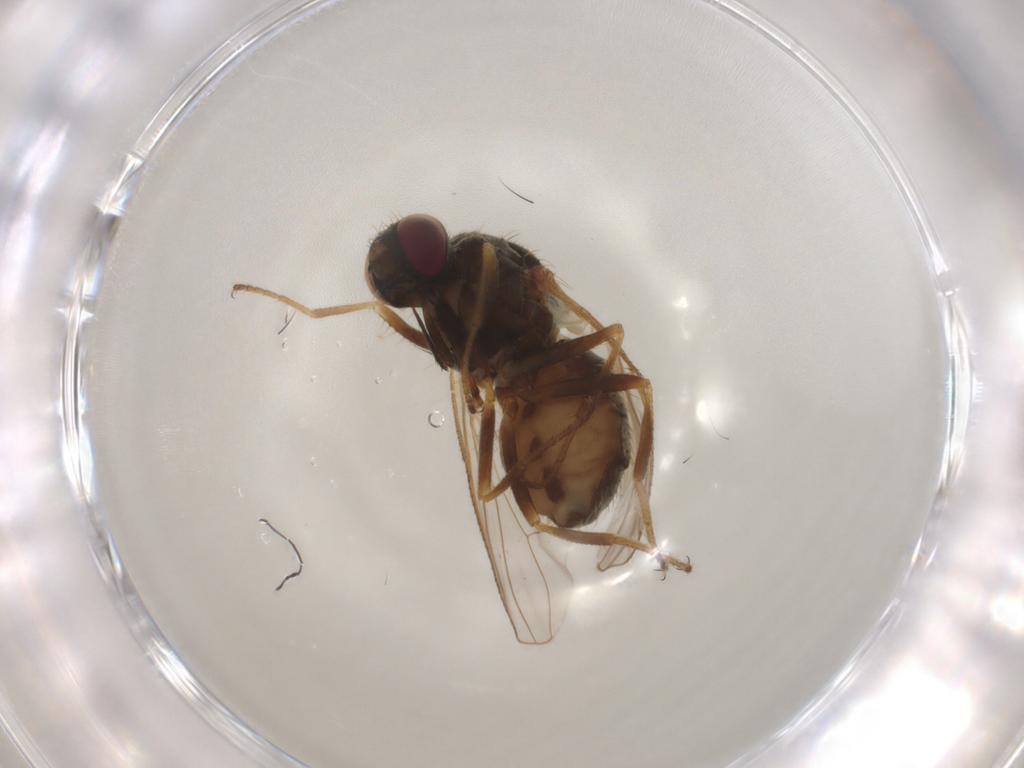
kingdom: Animalia
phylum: Arthropoda
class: Insecta
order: Diptera
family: Muscidae
